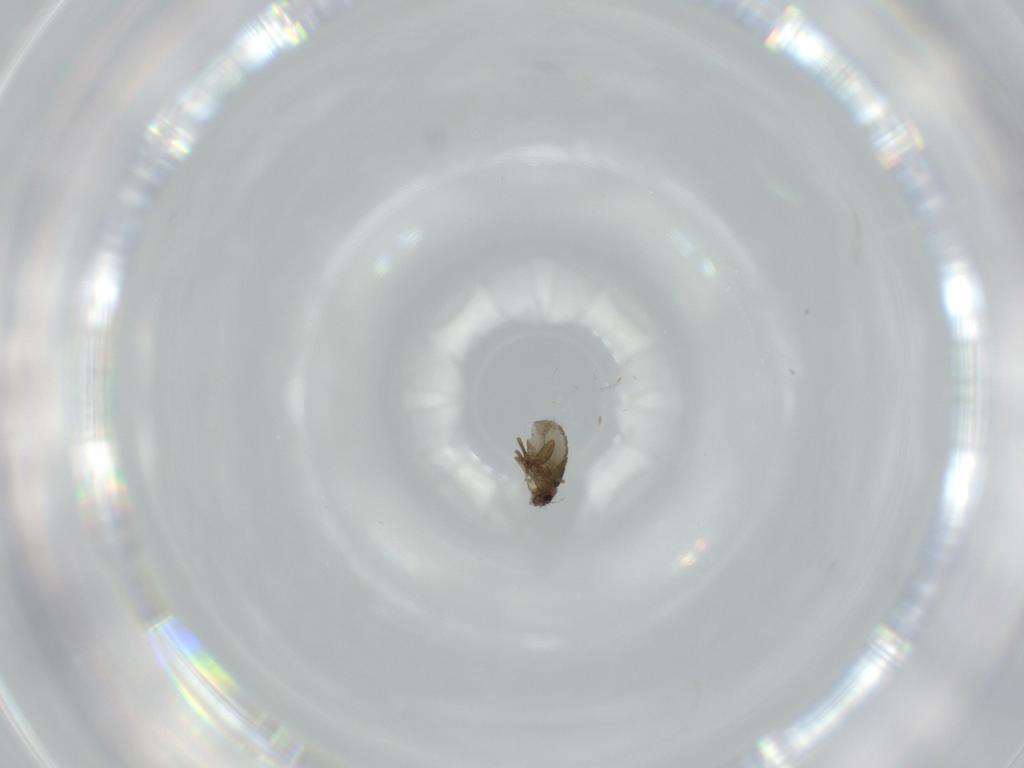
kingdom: Animalia
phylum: Arthropoda
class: Insecta
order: Diptera
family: Phoridae
